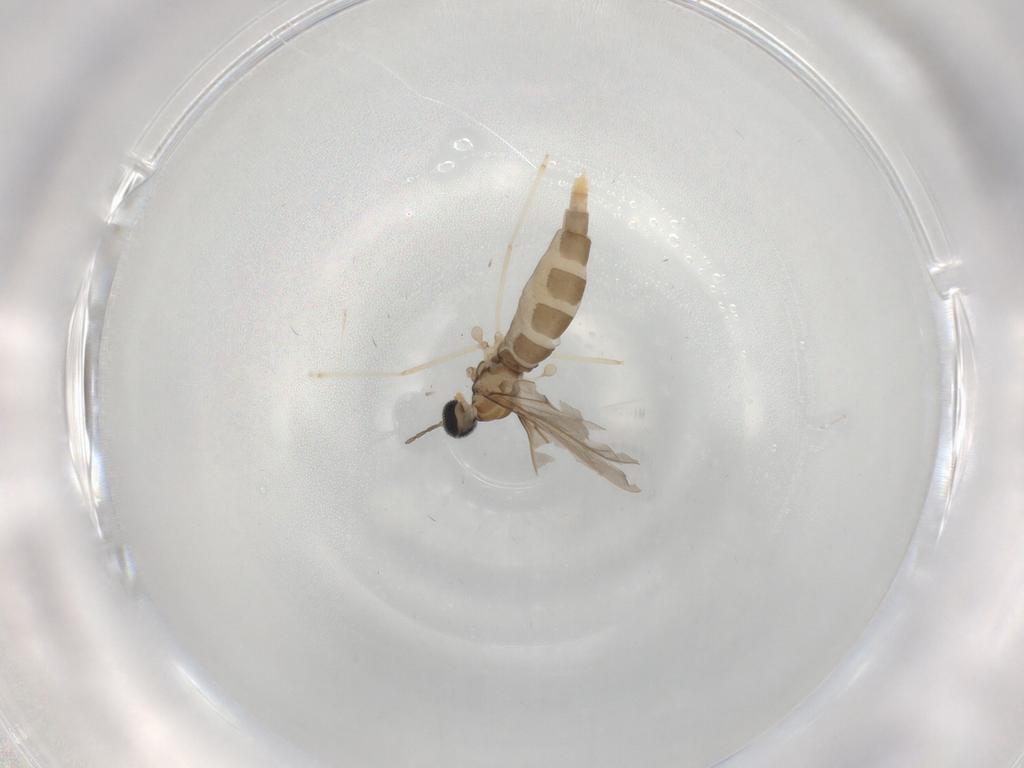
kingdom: Animalia
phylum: Arthropoda
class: Insecta
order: Diptera
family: Cecidomyiidae
